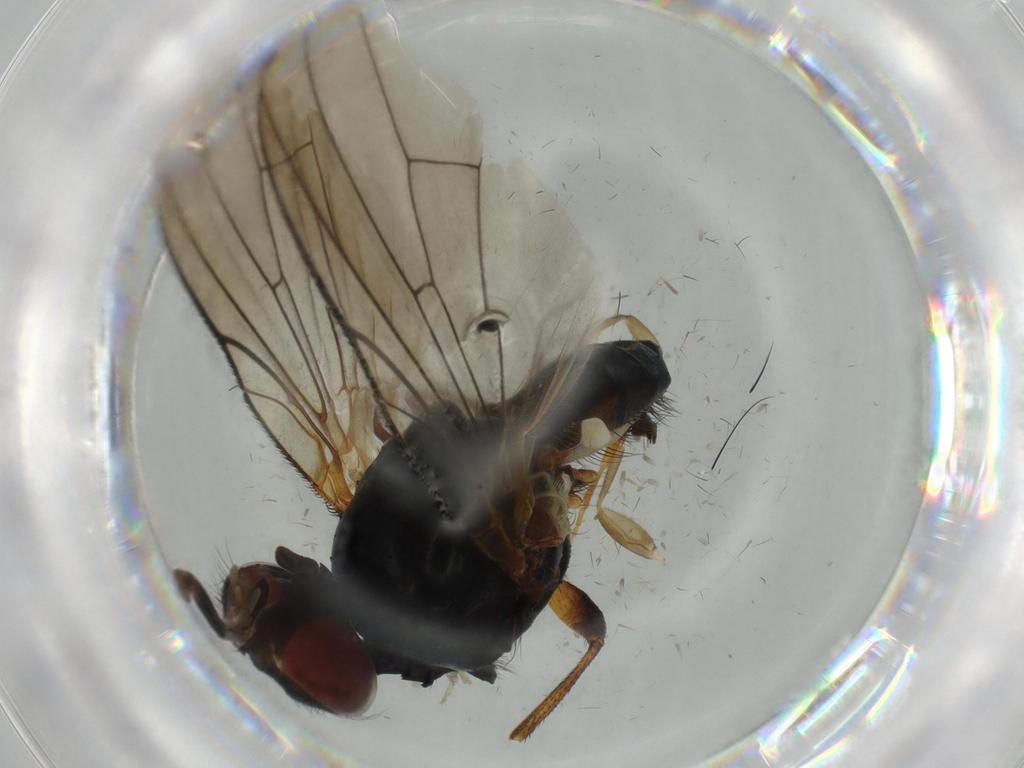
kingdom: Animalia
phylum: Arthropoda
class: Insecta
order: Diptera
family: Anthomyiidae
